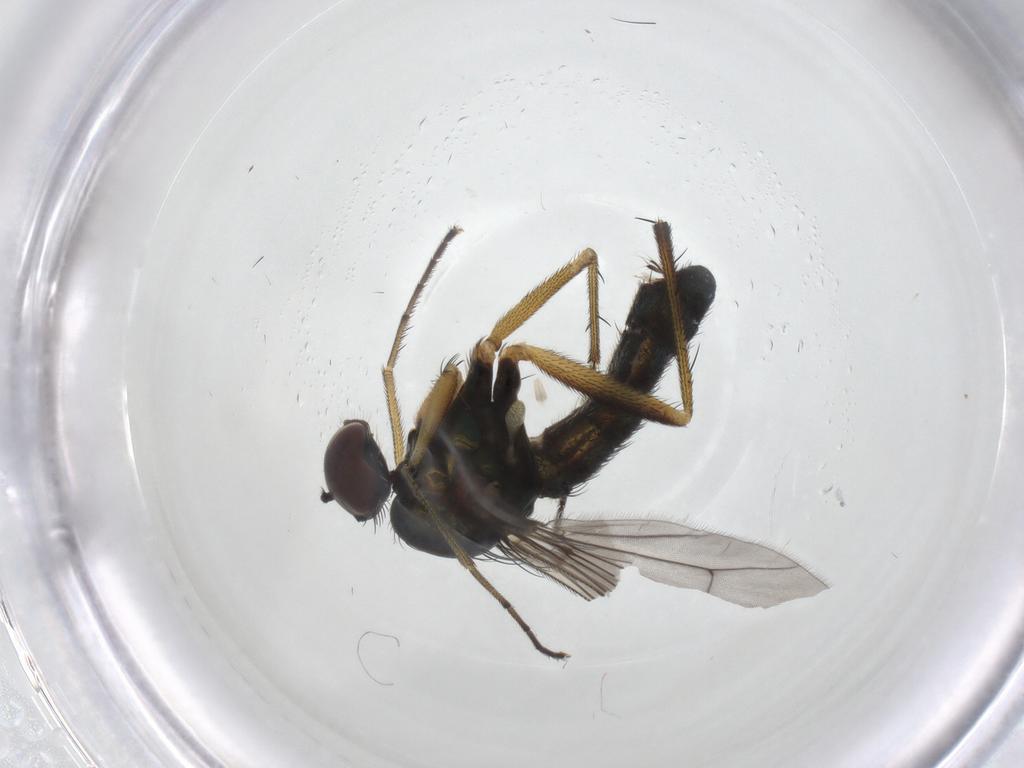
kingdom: Animalia
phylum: Arthropoda
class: Insecta
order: Diptera
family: Dolichopodidae
